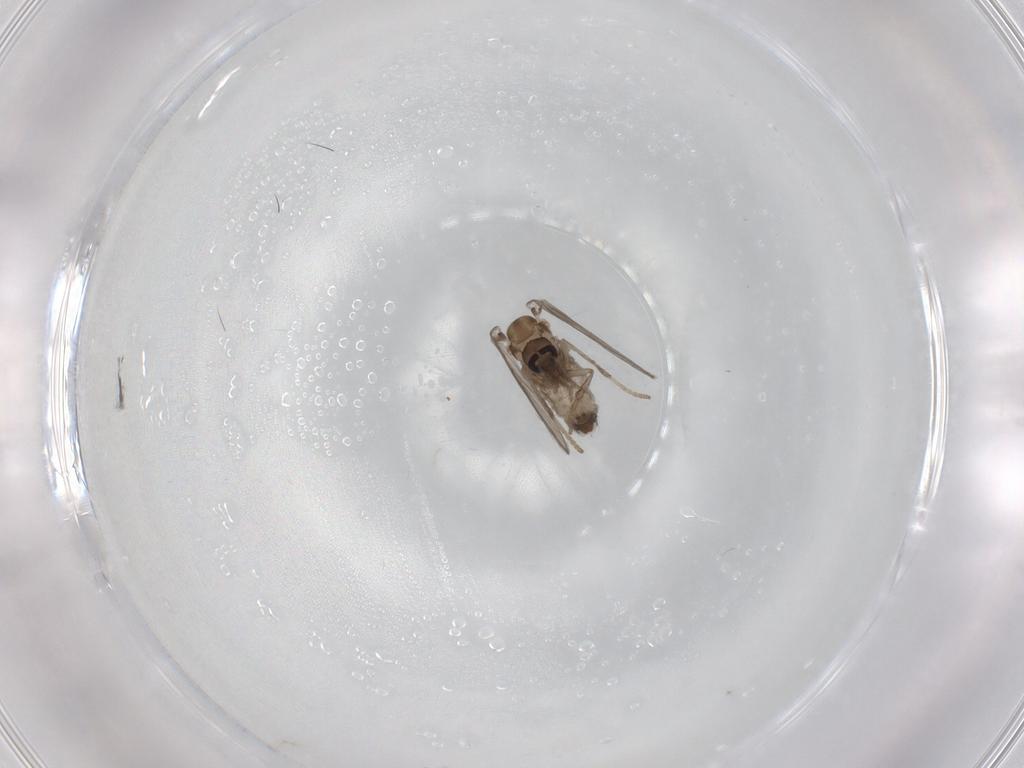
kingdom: Animalia
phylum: Arthropoda
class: Insecta
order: Diptera
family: Psychodidae
